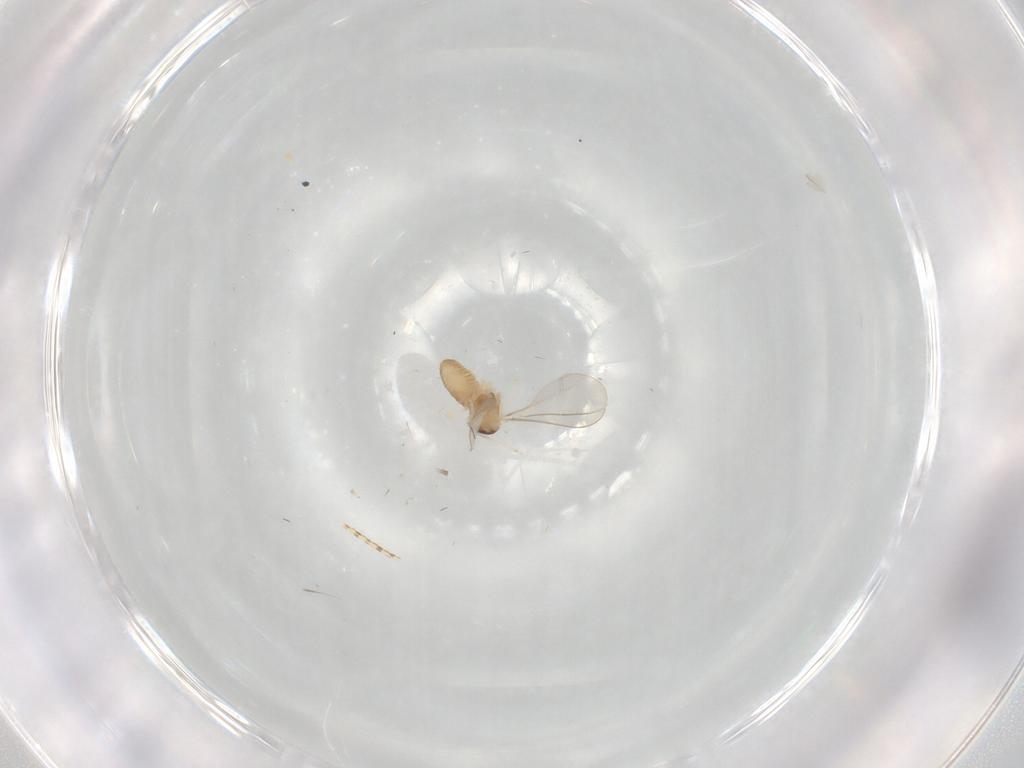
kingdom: Animalia
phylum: Arthropoda
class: Insecta
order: Diptera
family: Cecidomyiidae
